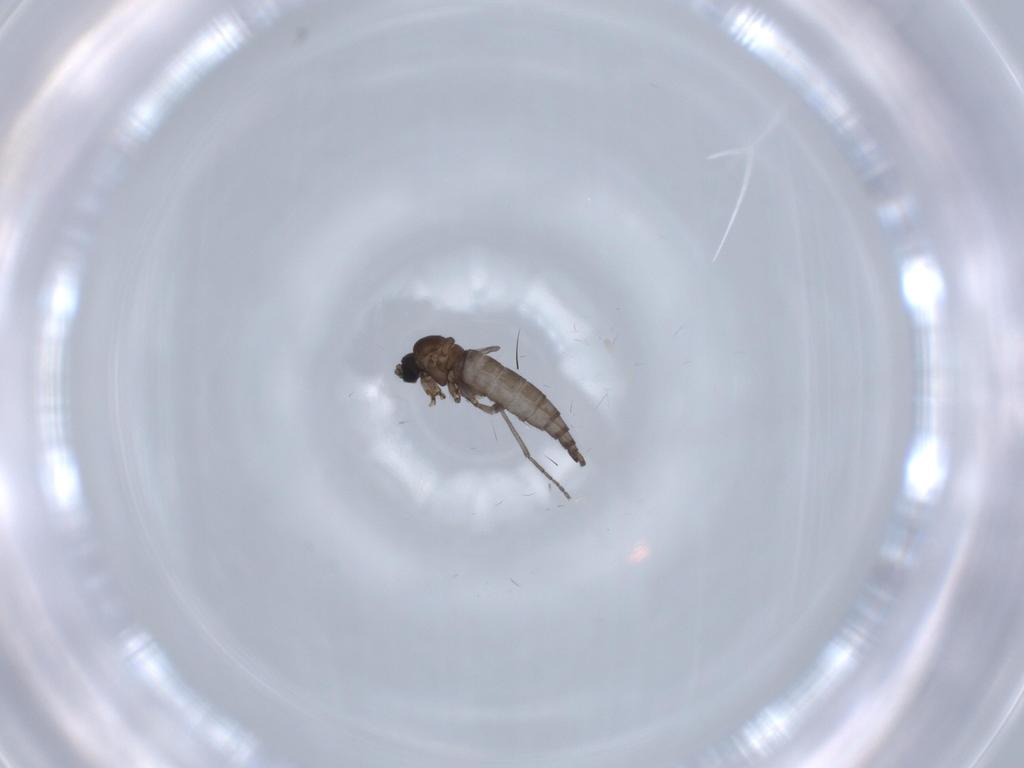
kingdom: Animalia
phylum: Arthropoda
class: Insecta
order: Diptera
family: Sciaridae
